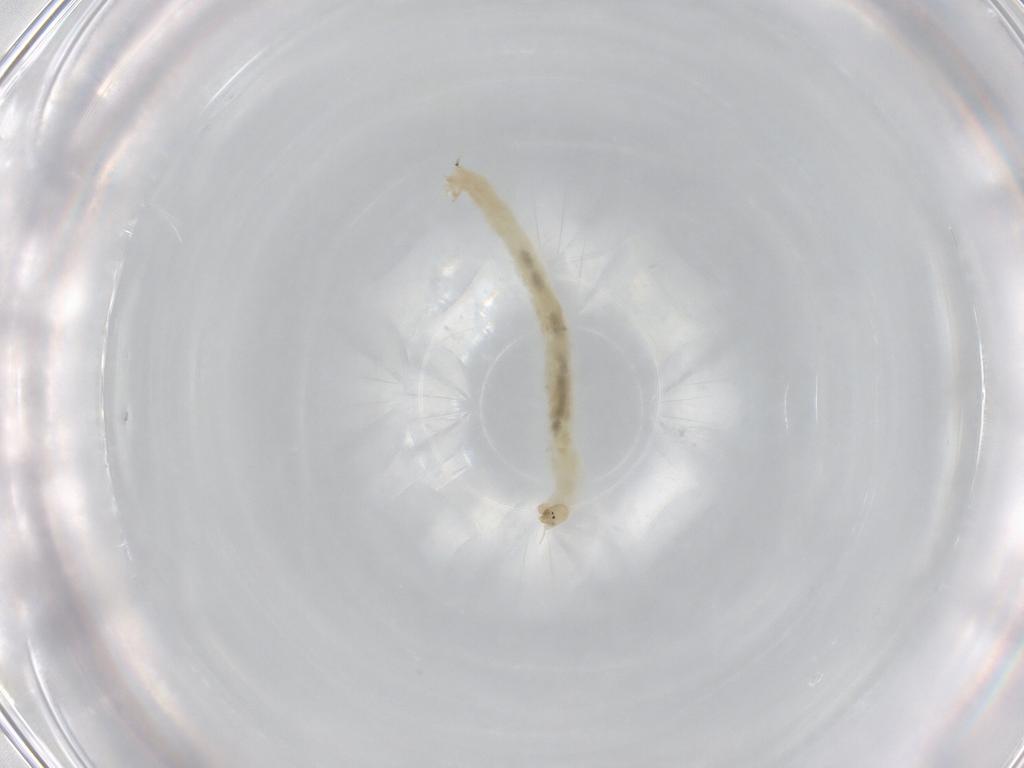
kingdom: Animalia
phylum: Arthropoda
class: Insecta
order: Diptera
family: Chironomidae
